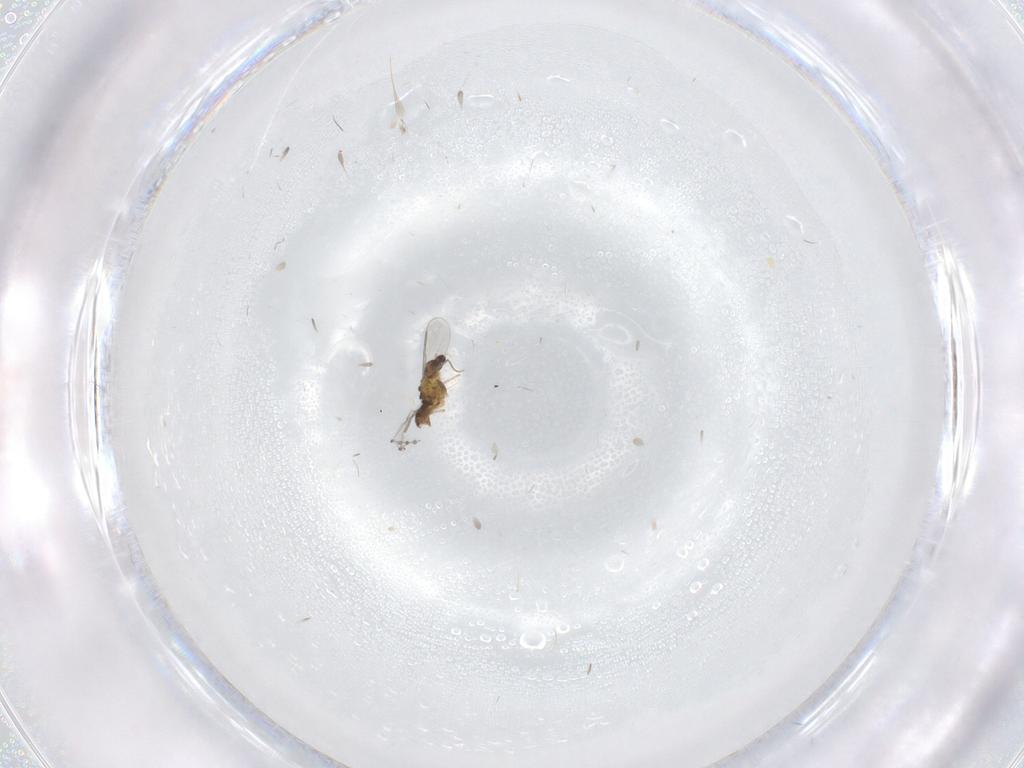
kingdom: Animalia
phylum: Arthropoda
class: Insecta
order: Diptera
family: Chironomidae
